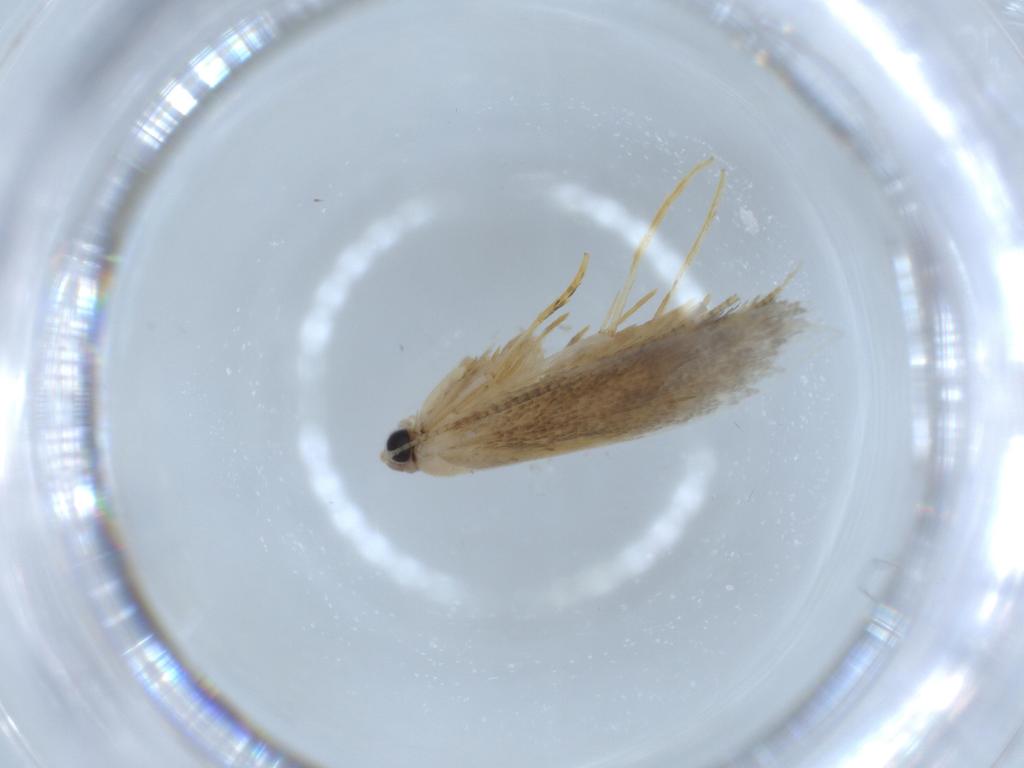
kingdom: Animalia
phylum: Arthropoda
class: Insecta
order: Lepidoptera
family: Tineidae
